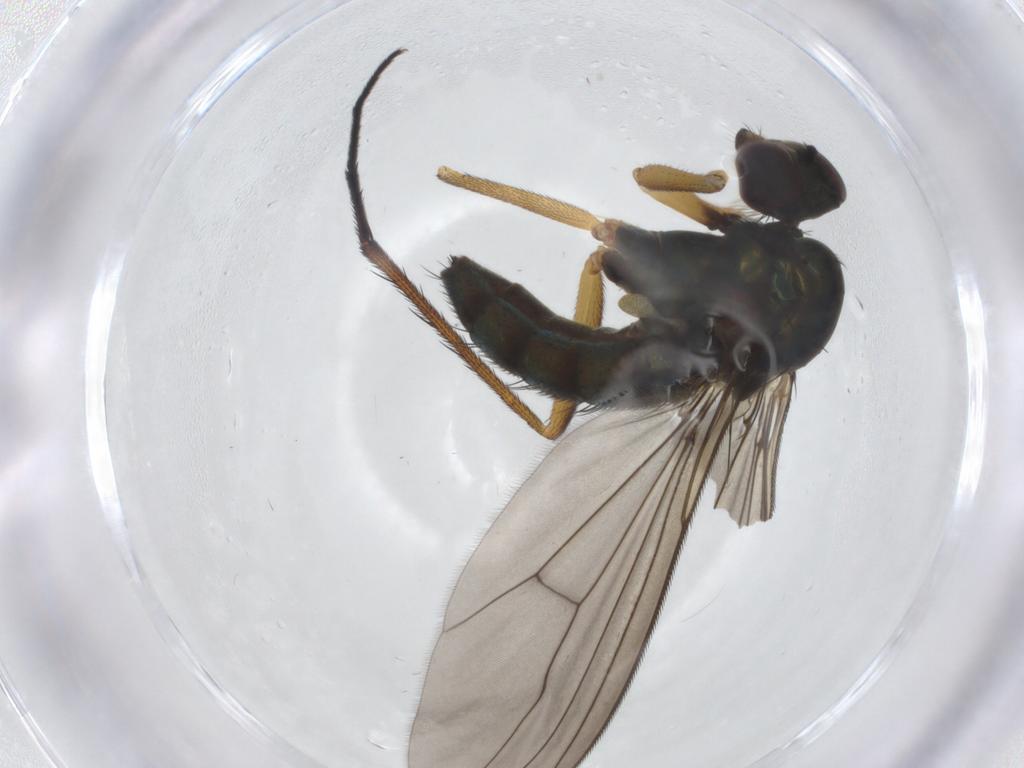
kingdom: Animalia
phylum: Arthropoda
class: Insecta
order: Diptera
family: Dolichopodidae
